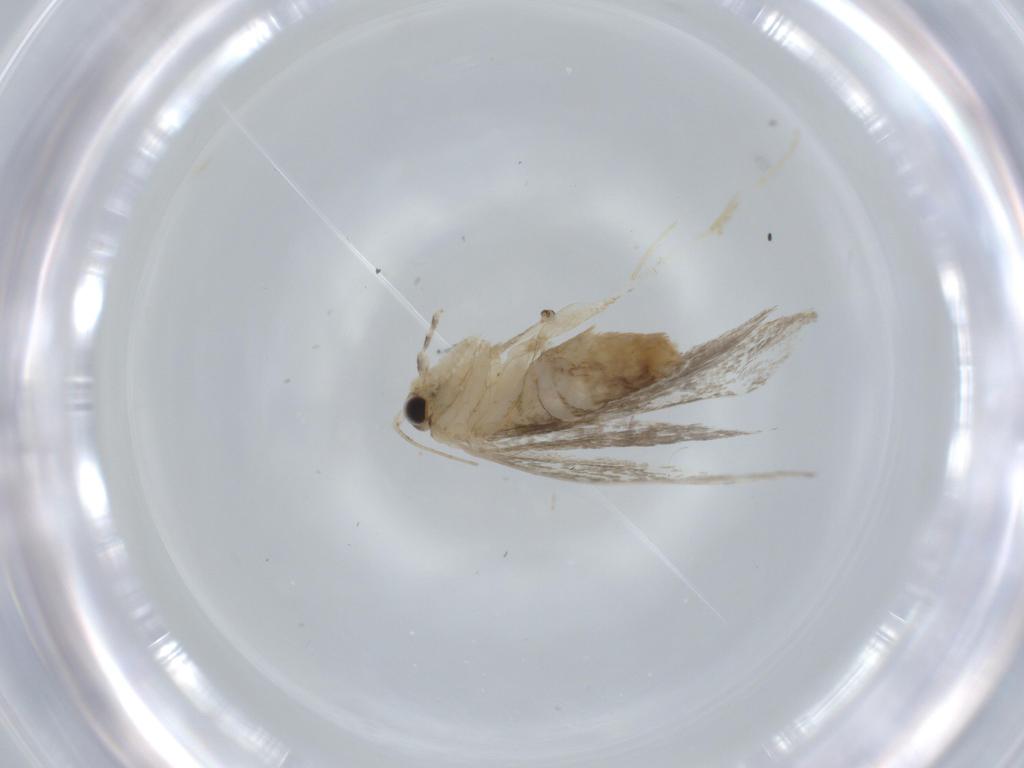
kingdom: Animalia
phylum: Arthropoda
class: Insecta
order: Lepidoptera
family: Tineidae
